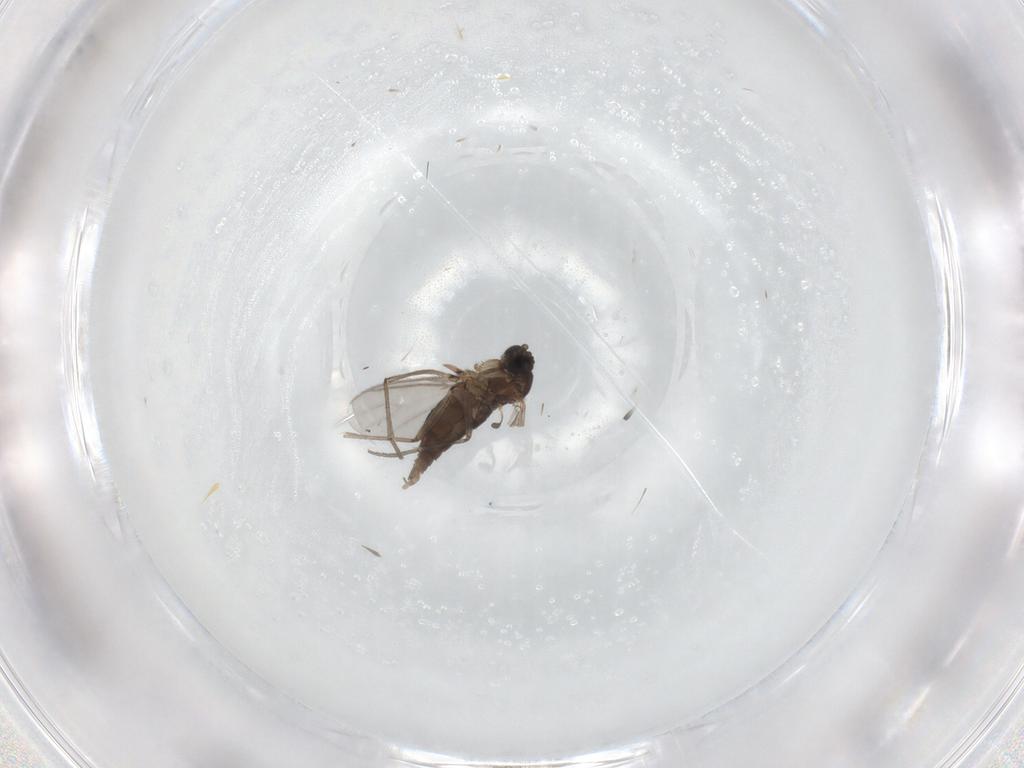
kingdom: Animalia
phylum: Arthropoda
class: Insecta
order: Diptera
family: Sciaridae
